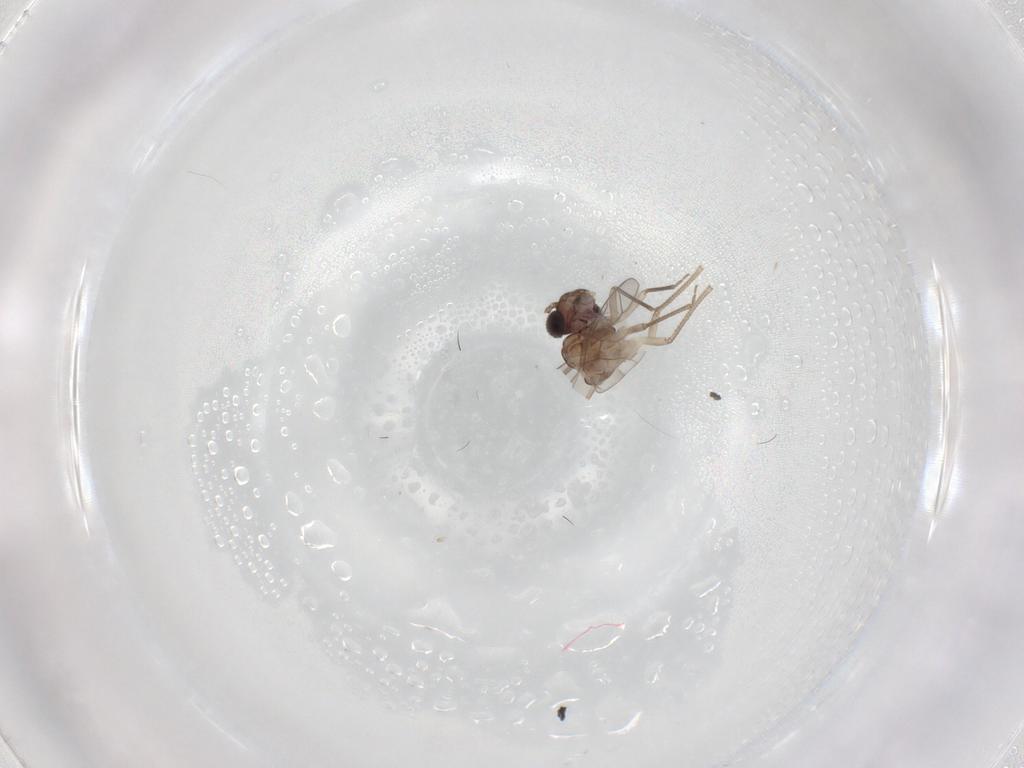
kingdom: Animalia
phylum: Arthropoda
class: Insecta
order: Psocodea
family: Peripsocidae
